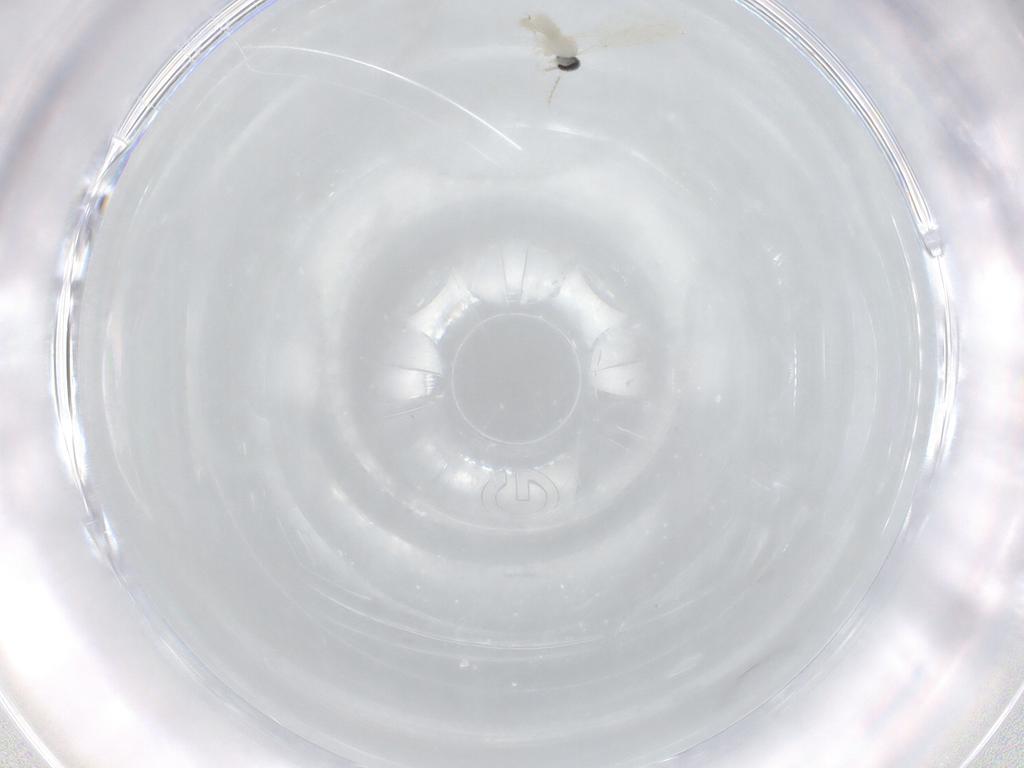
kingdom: Animalia
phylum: Arthropoda
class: Insecta
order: Diptera
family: Cecidomyiidae
